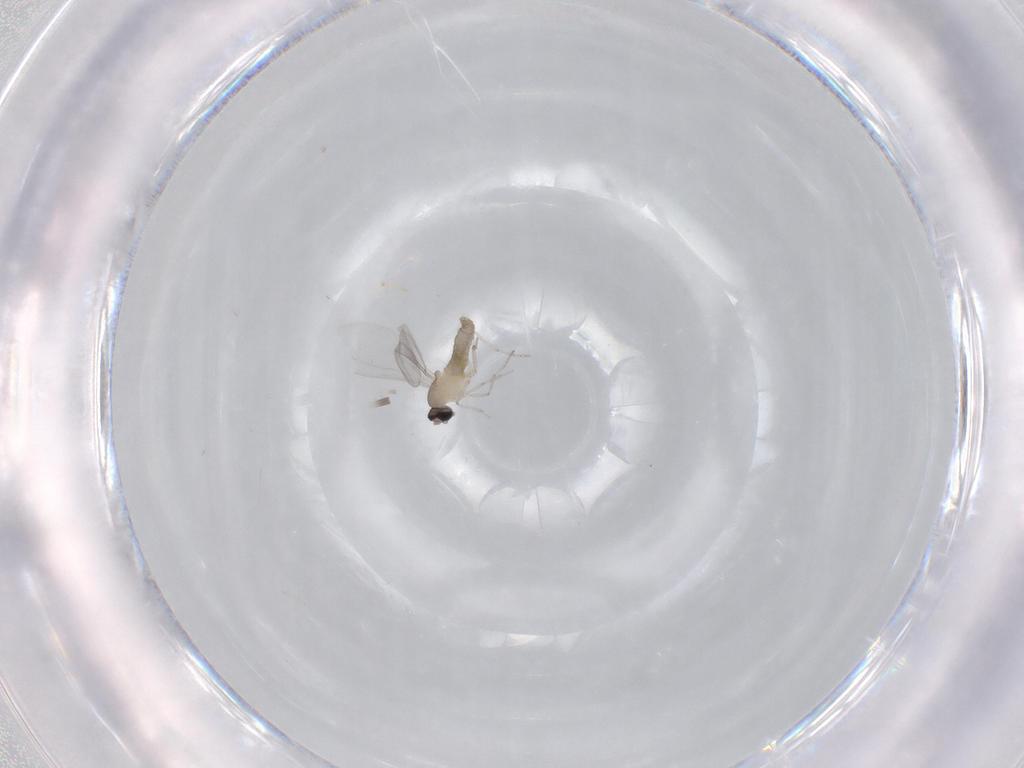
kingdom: Animalia
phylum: Arthropoda
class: Insecta
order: Diptera
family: Cecidomyiidae
